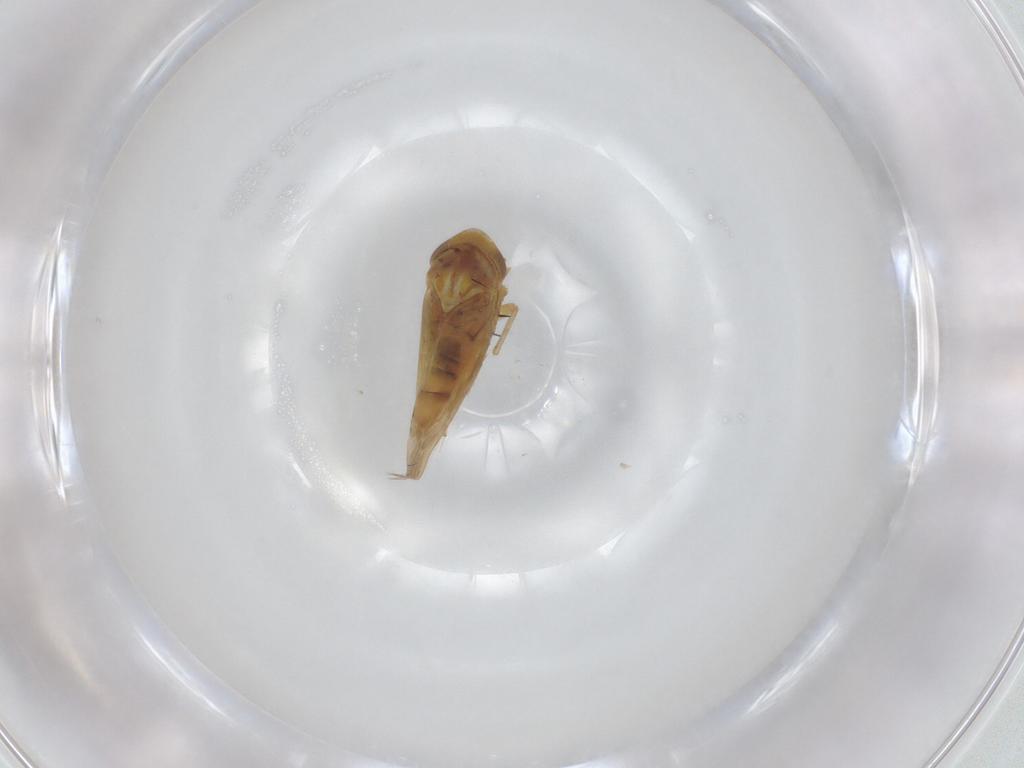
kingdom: Animalia
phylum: Arthropoda
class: Insecta
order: Hemiptera
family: Cicadellidae
